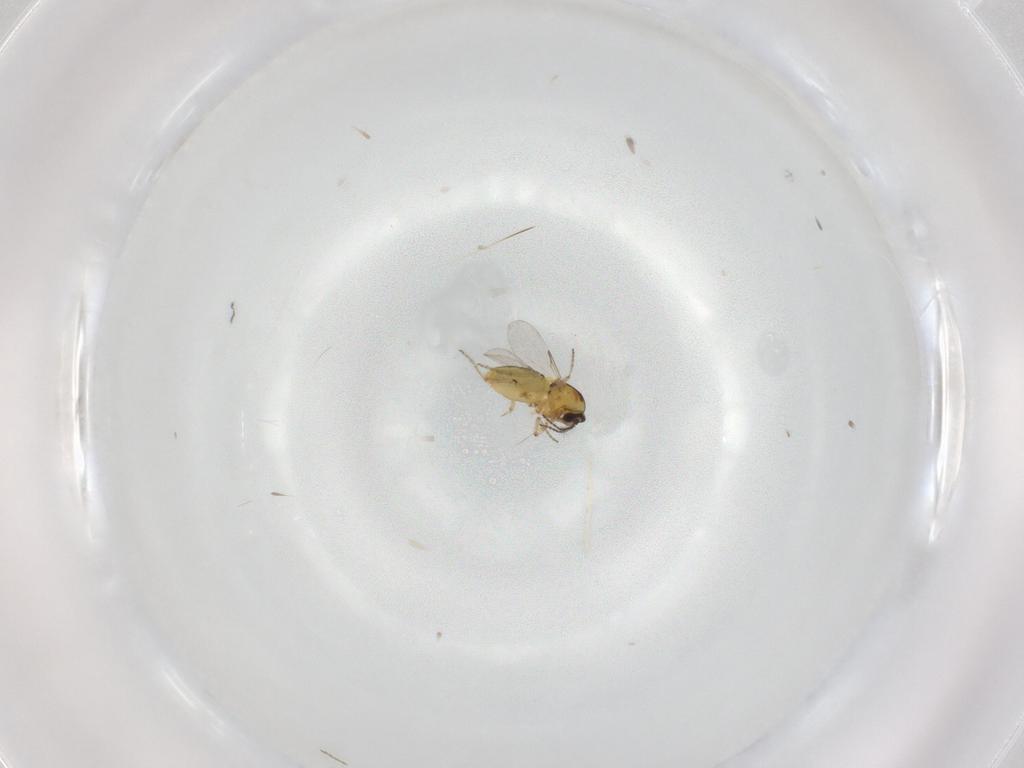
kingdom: Animalia
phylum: Arthropoda
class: Insecta
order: Diptera
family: Ceratopogonidae
